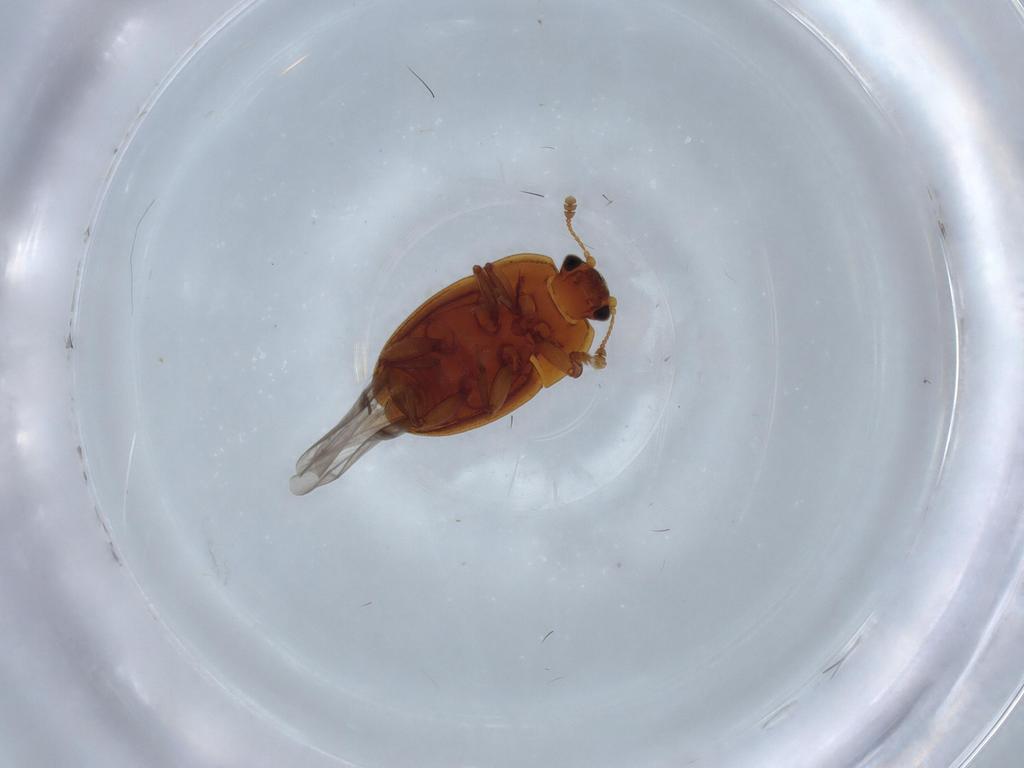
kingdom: Animalia
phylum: Arthropoda
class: Insecta
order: Coleoptera
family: Nitidulidae
